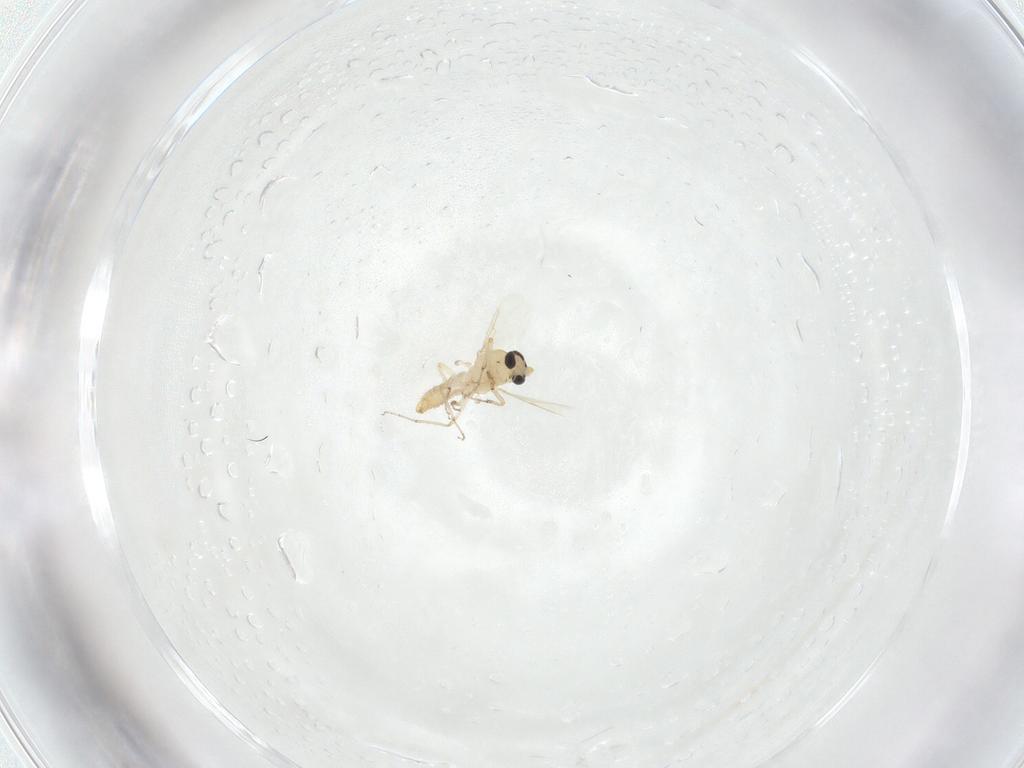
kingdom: Animalia
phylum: Arthropoda
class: Insecta
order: Diptera
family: Ceratopogonidae
